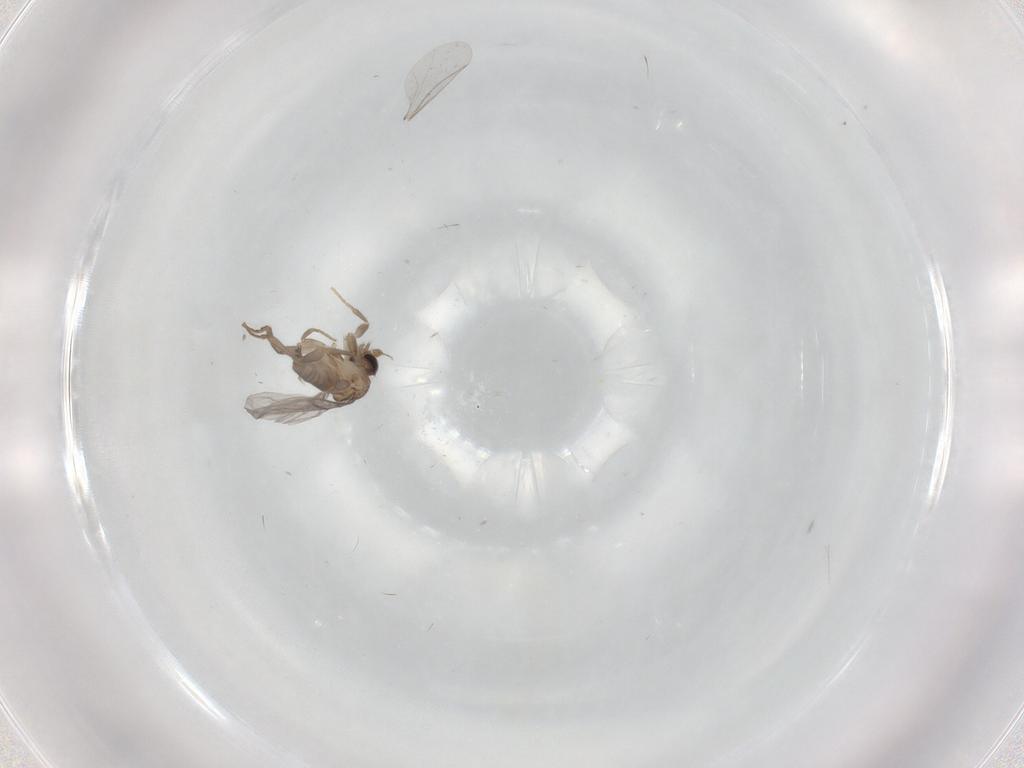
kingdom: Animalia
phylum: Arthropoda
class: Insecta
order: Diptera
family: Cecidomyiidae
